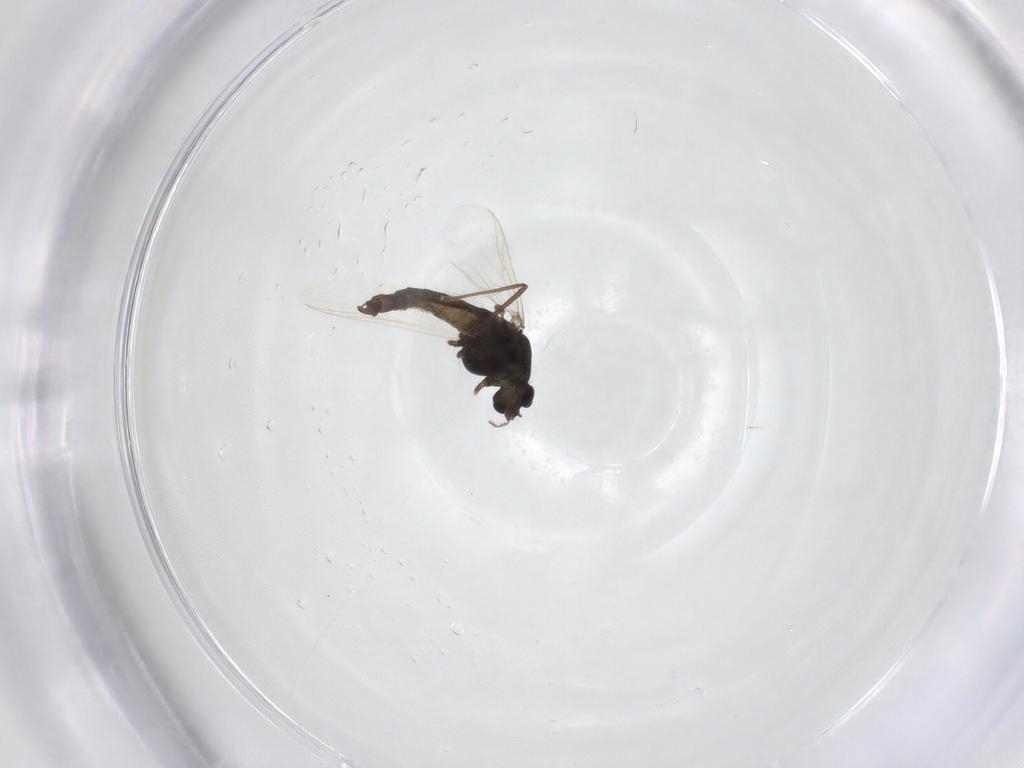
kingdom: Animalia
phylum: Arthropoda
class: Insecta
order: Diptera
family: Chironomidae
